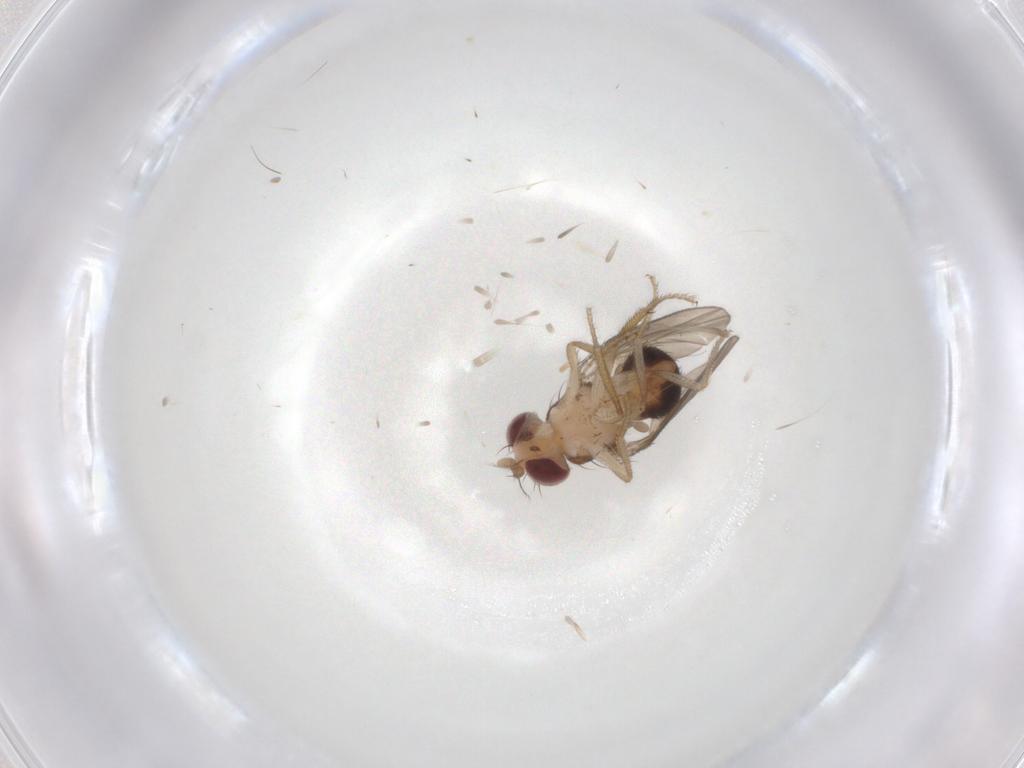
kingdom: Animalia
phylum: Arthropoda
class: Insecta
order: Diptera
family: Drosophilidae
